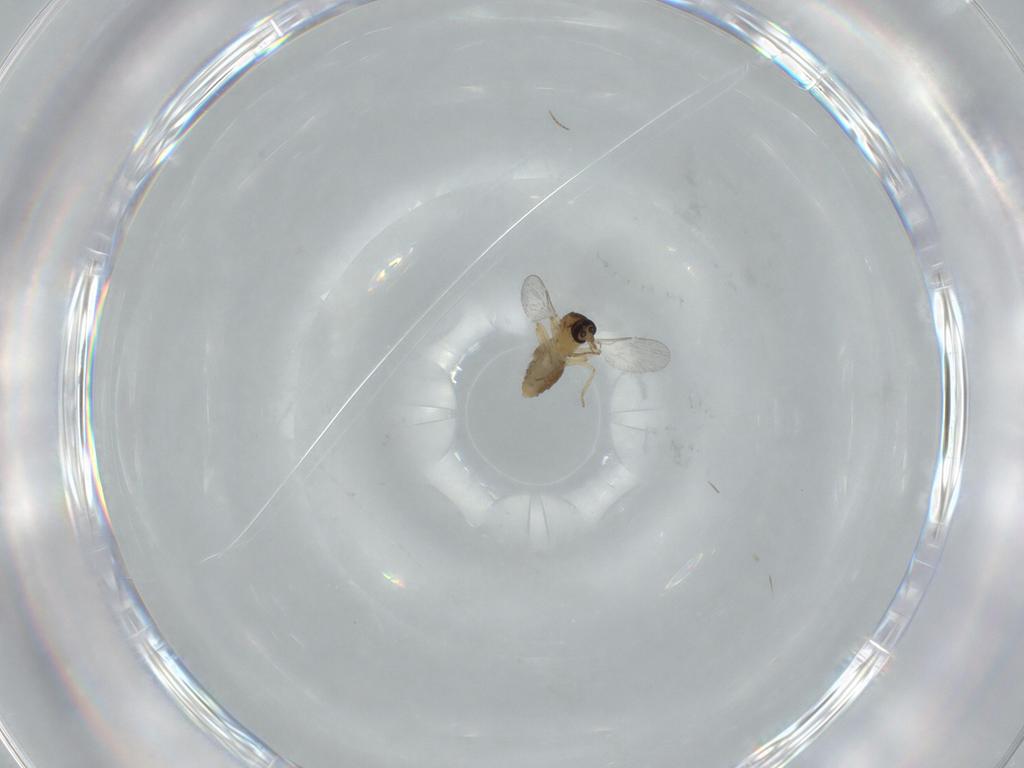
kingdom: Animalia
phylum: Arthropoda
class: Insecta
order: Diptera
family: Ceratopogonidae
